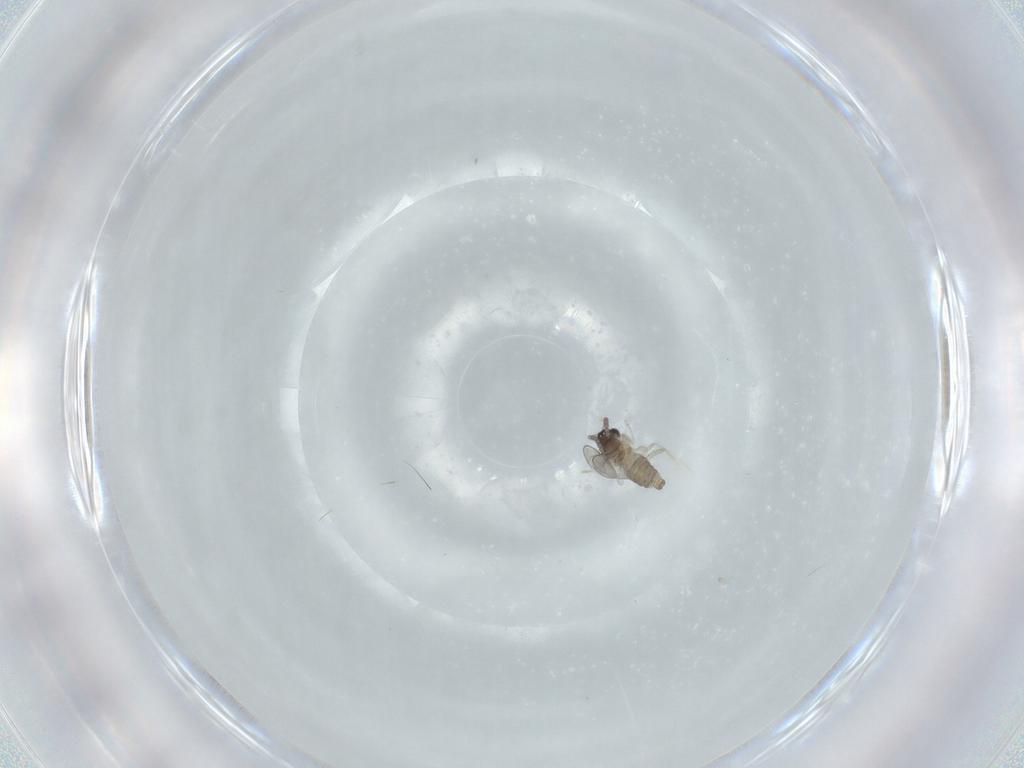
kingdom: Animalia
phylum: Arthropoda
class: Insecta
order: Diptera
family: Cecidomyiidae
